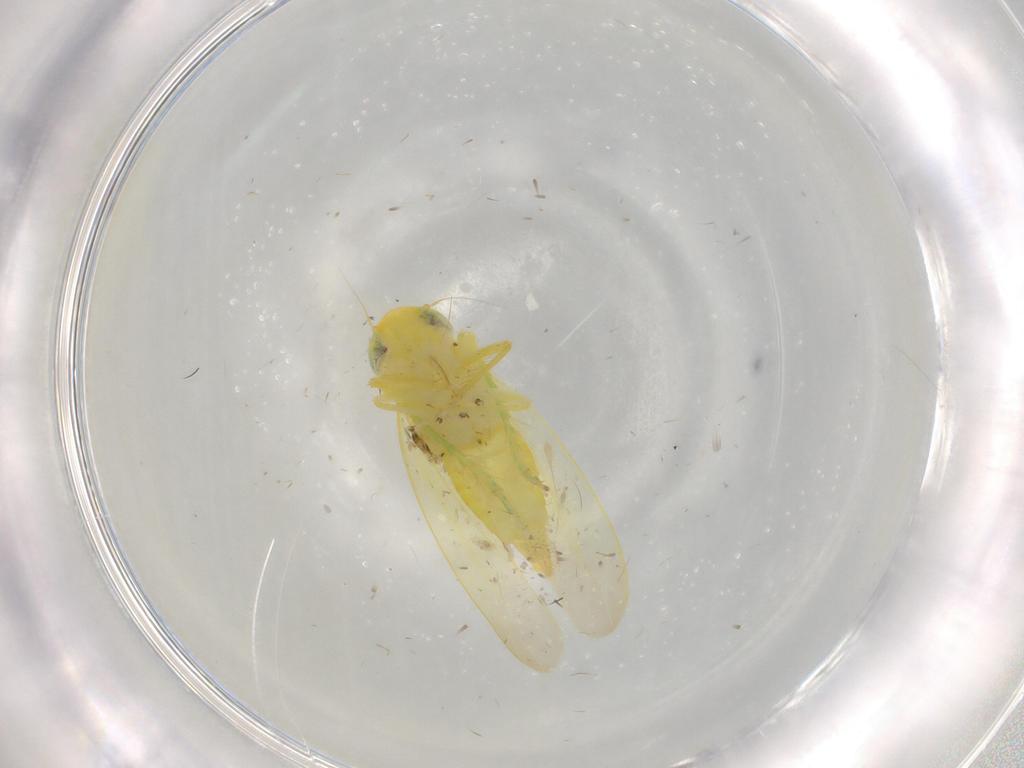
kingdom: Animalia
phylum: Arthropoda
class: Insecta
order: Hemiptera
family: Cicadellidae
